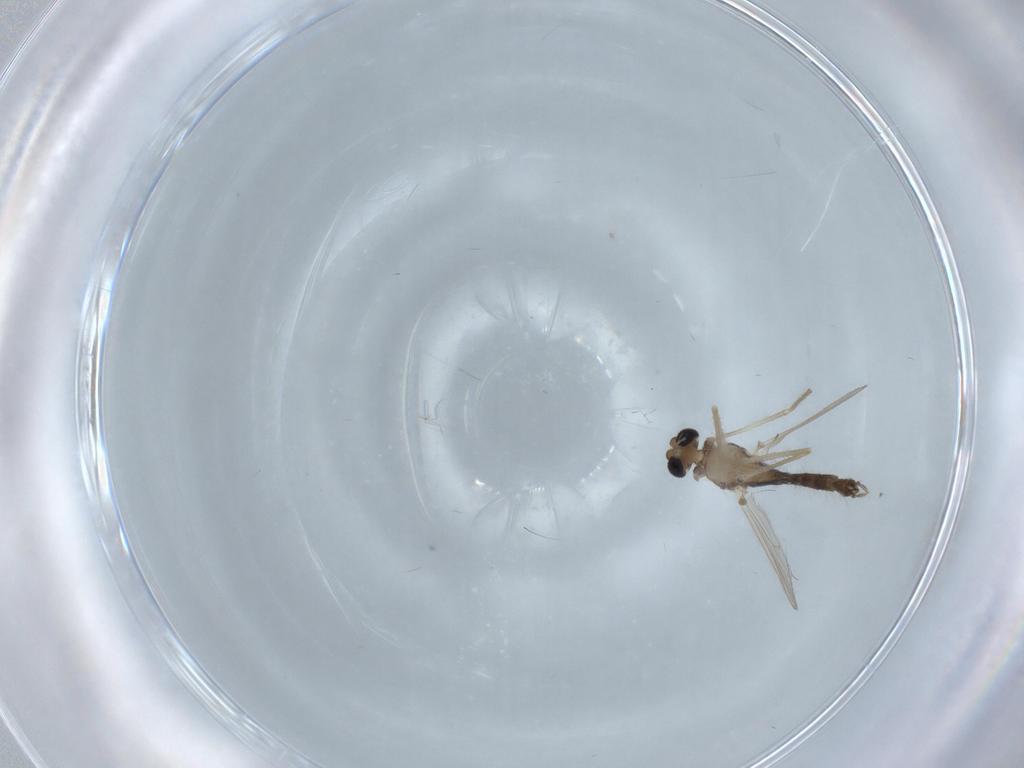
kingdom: Animalia
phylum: Arthropoda
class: Insecta
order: Diptera
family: Chironomidae
